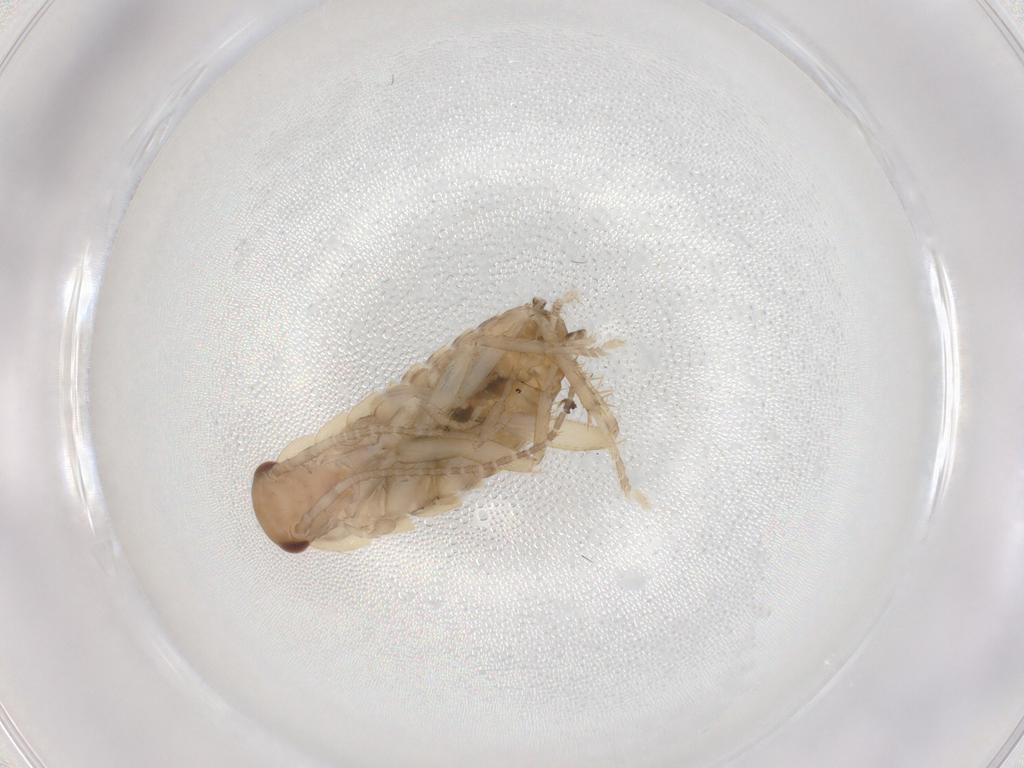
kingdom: Animalia
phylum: Arthropoda
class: Insecta
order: Blattodea
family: Ectobiidae
